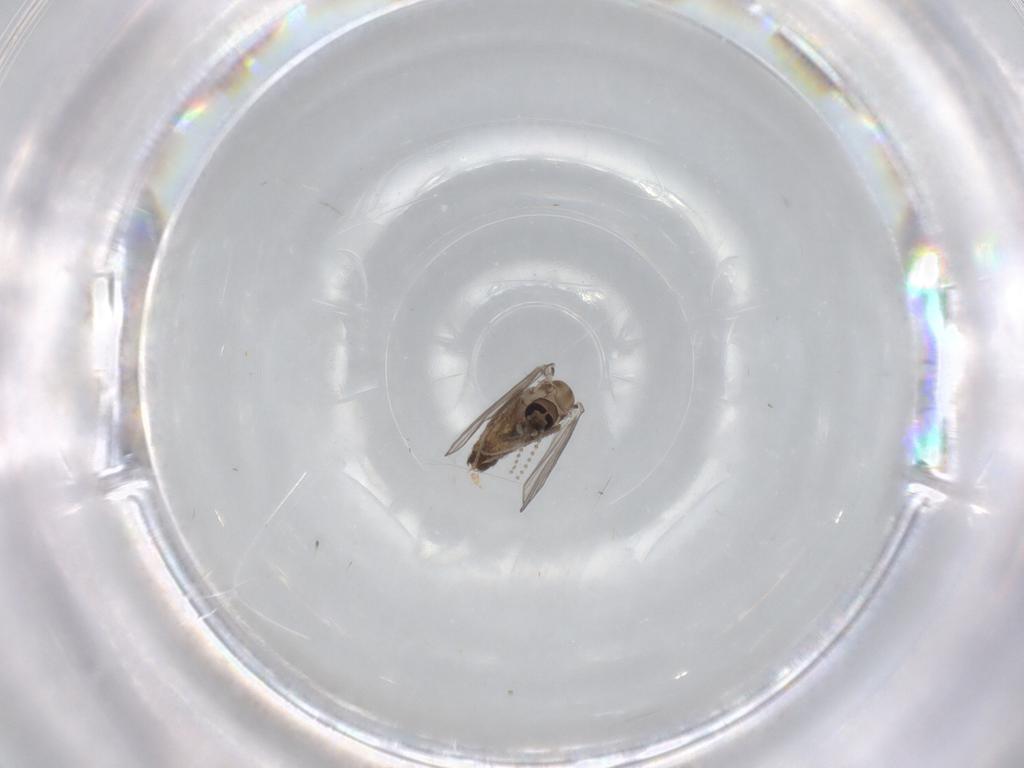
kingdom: Animalia
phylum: Arthropoda
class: Insecta
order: Diptera
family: Psychodidae
